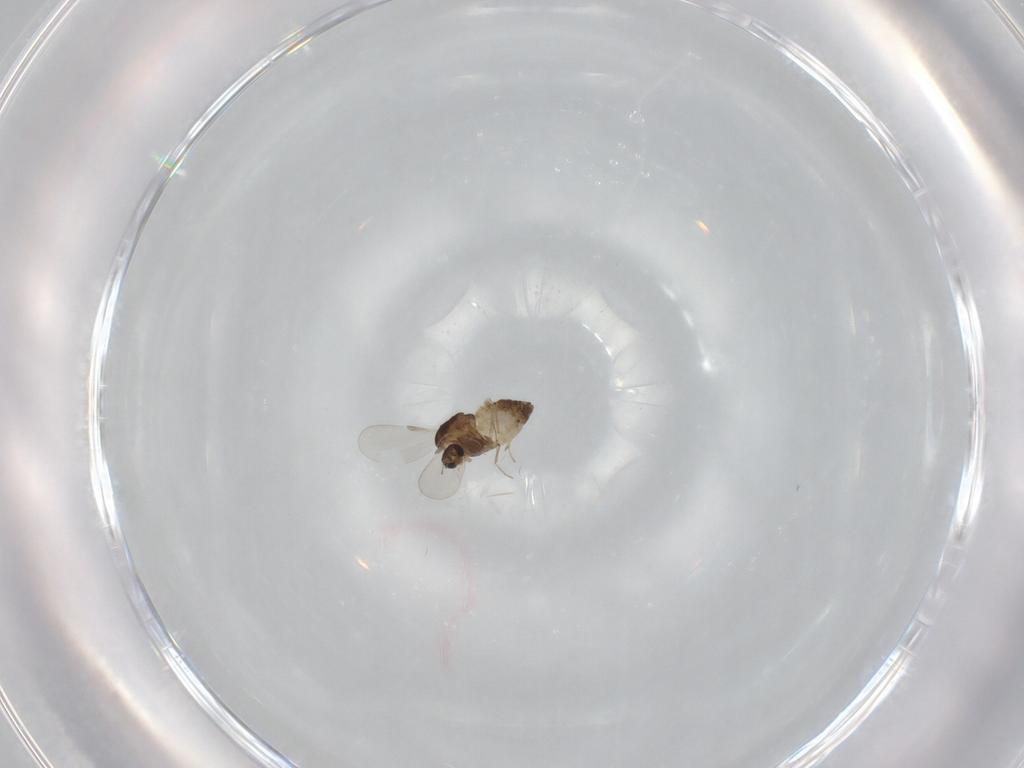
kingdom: Animalia
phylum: Arthropoda
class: Insecta
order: Diptera
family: Chironomidae
